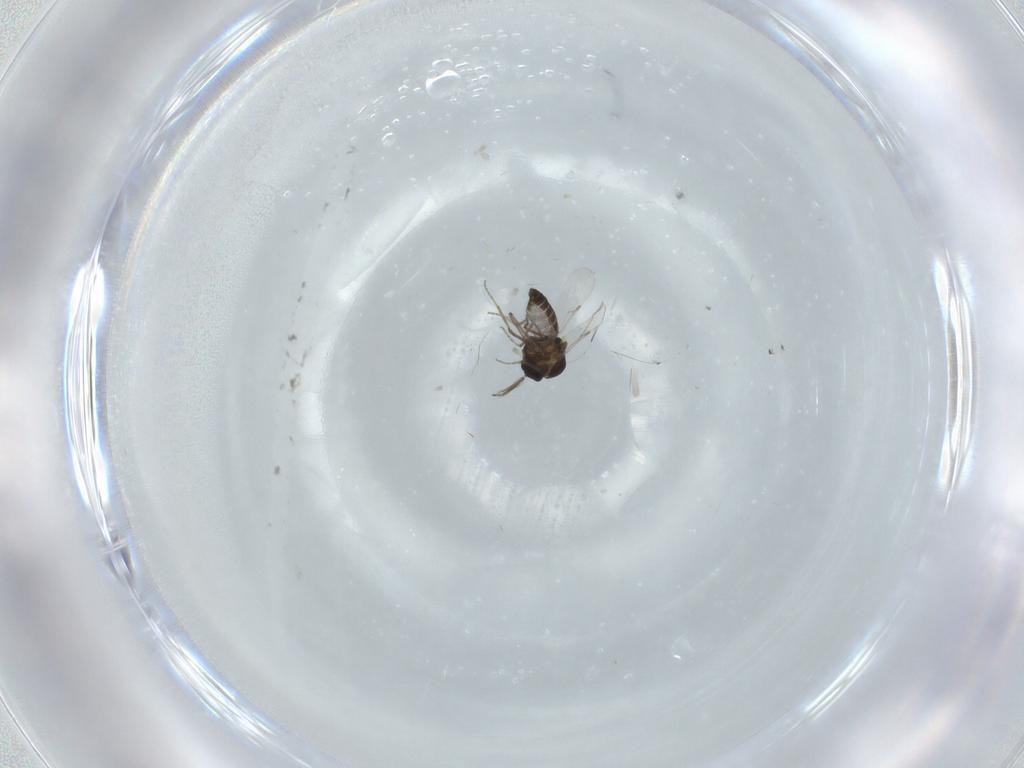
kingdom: Animalia
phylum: Arthropoda
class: Insecta
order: Diptera
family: Ceratopogonidae
